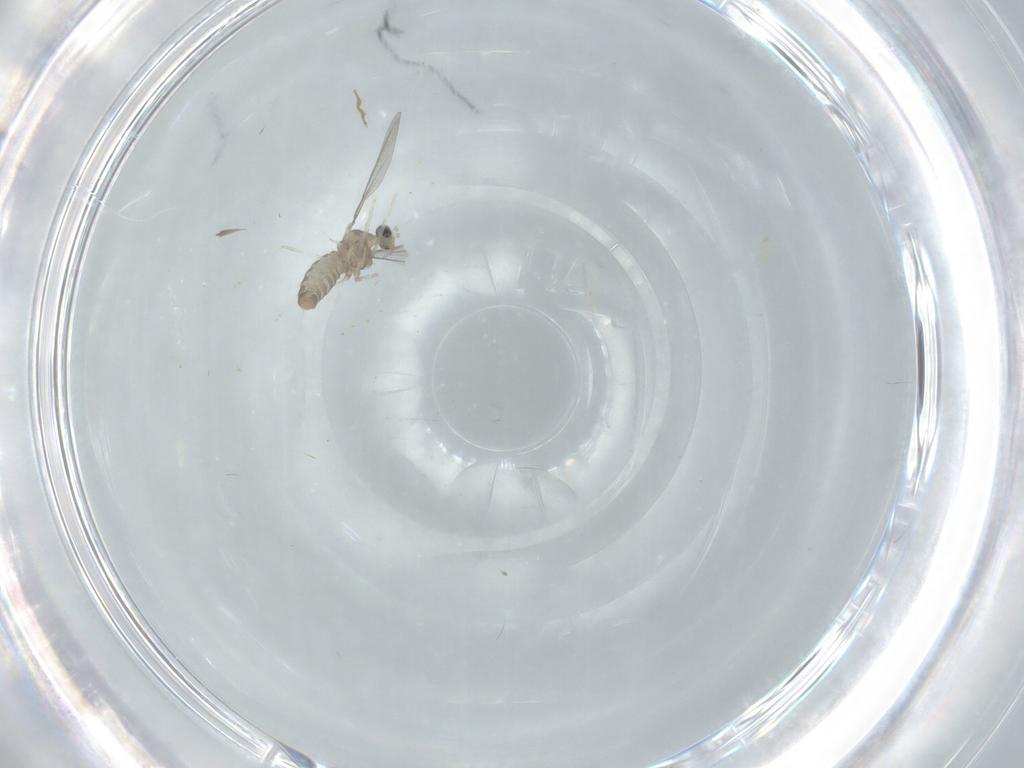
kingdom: Animalia
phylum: Arthropoda
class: Insecta
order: Diptera
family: Cecidomyiidae
